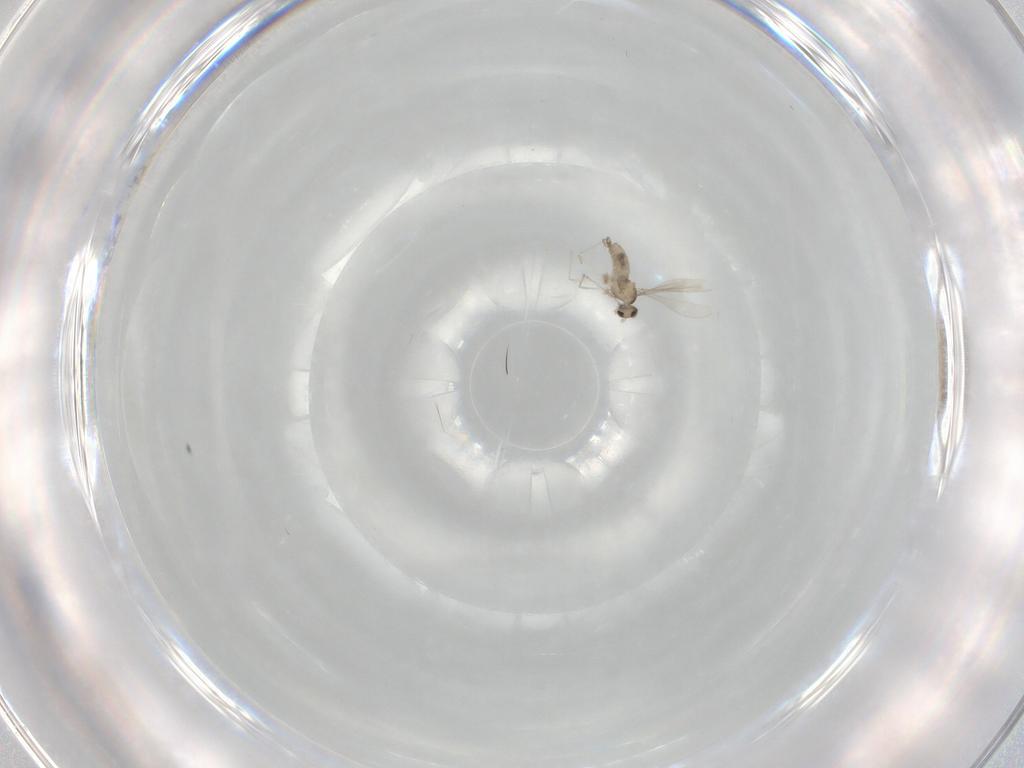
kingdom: Animalia
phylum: Arthropoda
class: Insecta
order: Diptera
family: Cecidomyiidae
